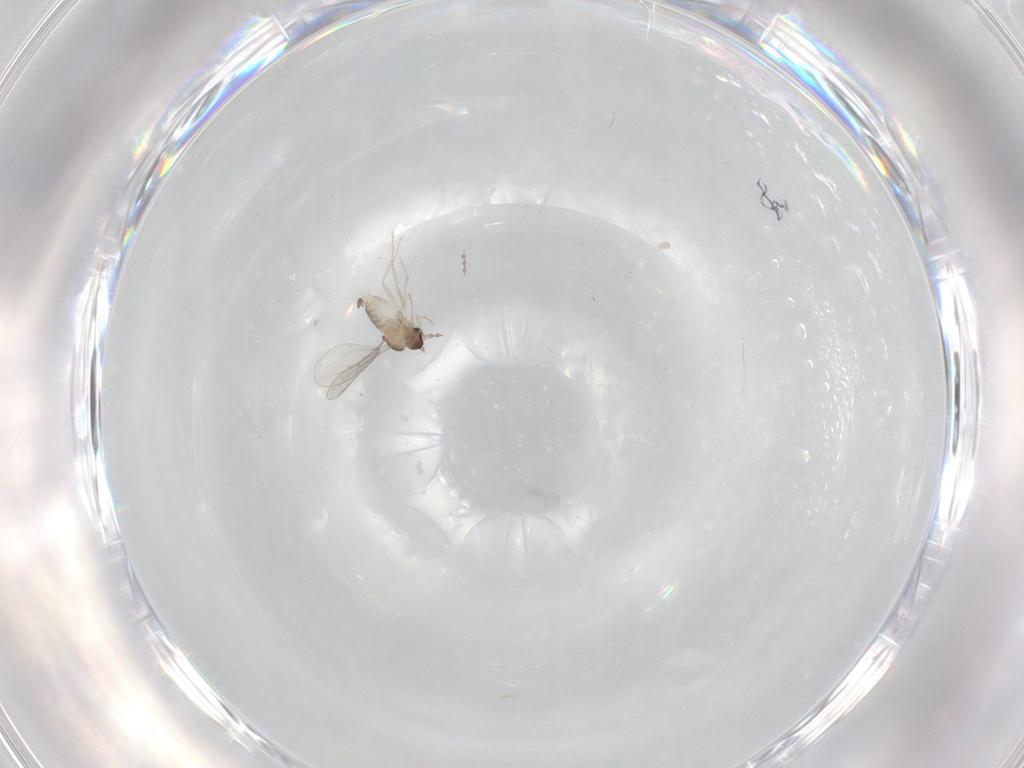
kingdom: Animalia
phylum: Arthropoda
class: Insecta
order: Diptera
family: Cecidomyiidae
